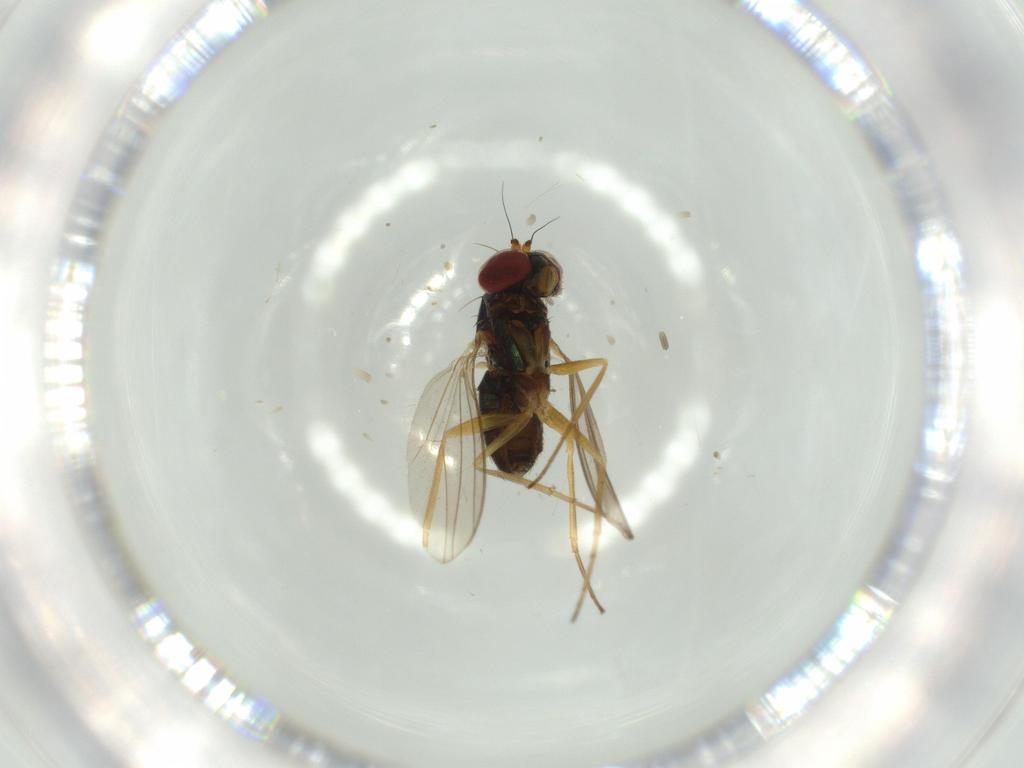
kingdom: Animalia
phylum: Arthropoda
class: Insecta
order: Diptera
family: Dolichopodidae
